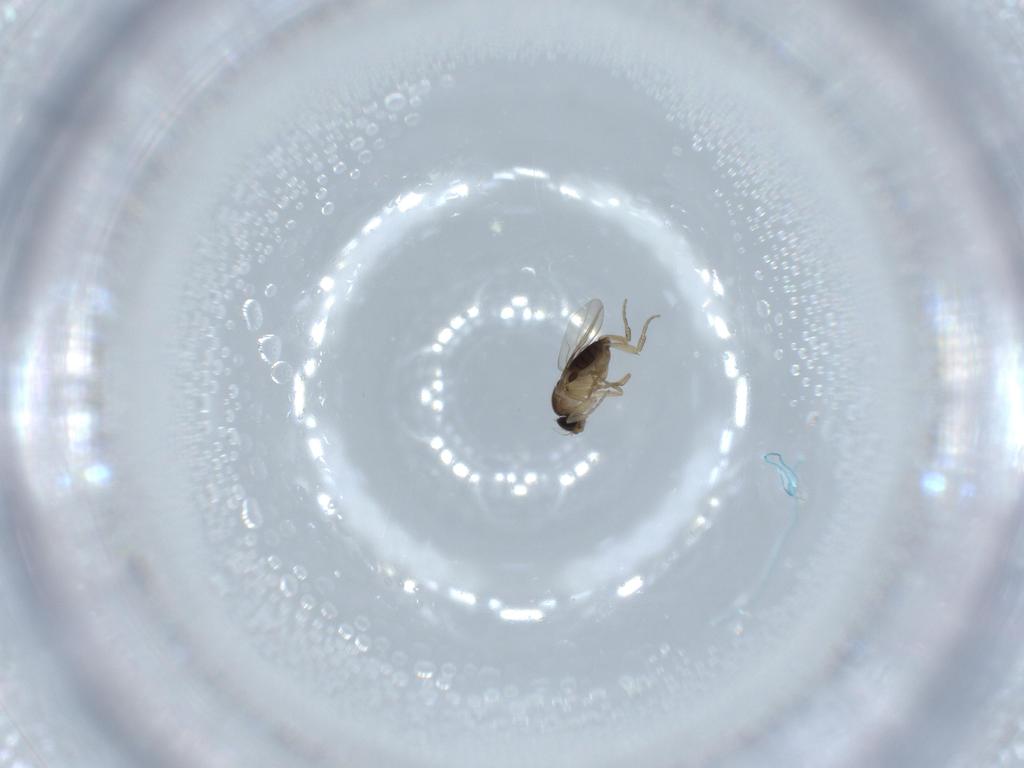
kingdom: Animalia
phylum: Arthropoda
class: Insecta
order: Diptera
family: Phoridae
